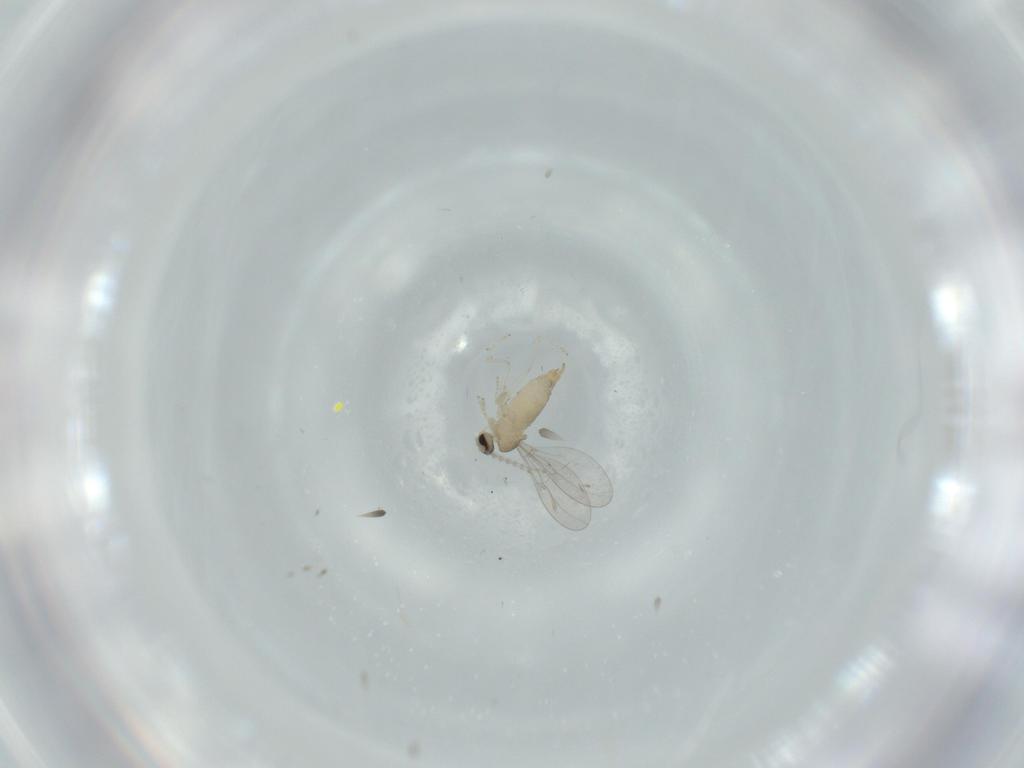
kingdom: Animalia
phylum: Arthropoda
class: Insecta
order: Diptera
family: Cecidomyiidae
